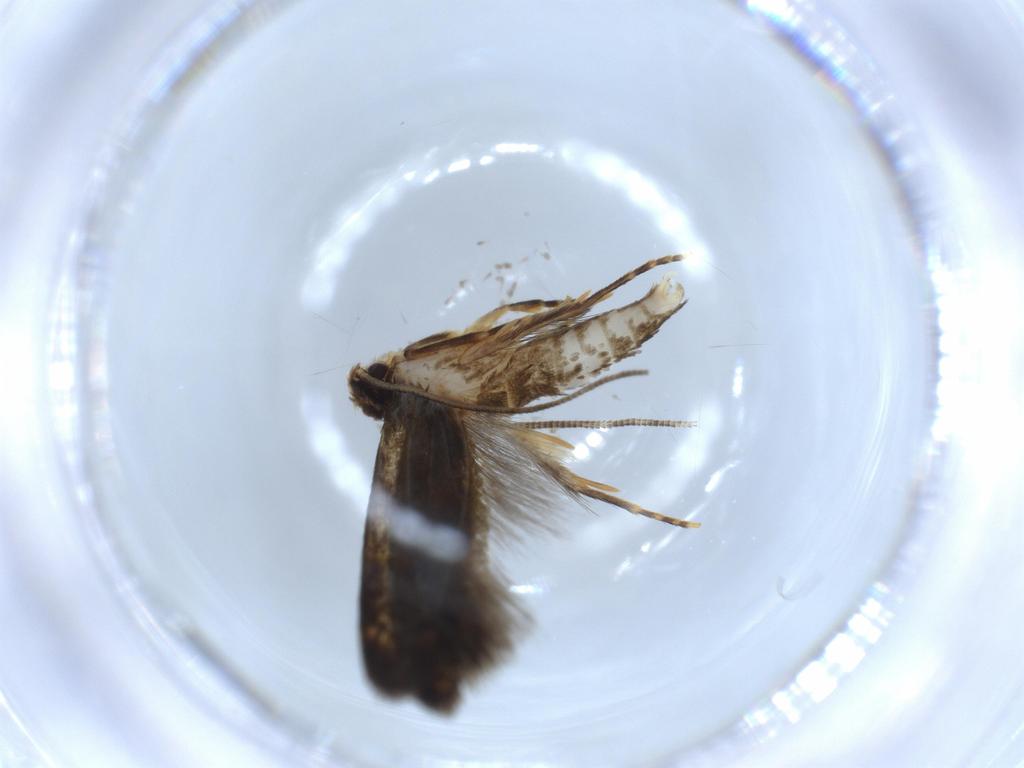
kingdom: Animalia
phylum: Arthropoda
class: Insecta
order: Lepidoptera
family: Tineidae
